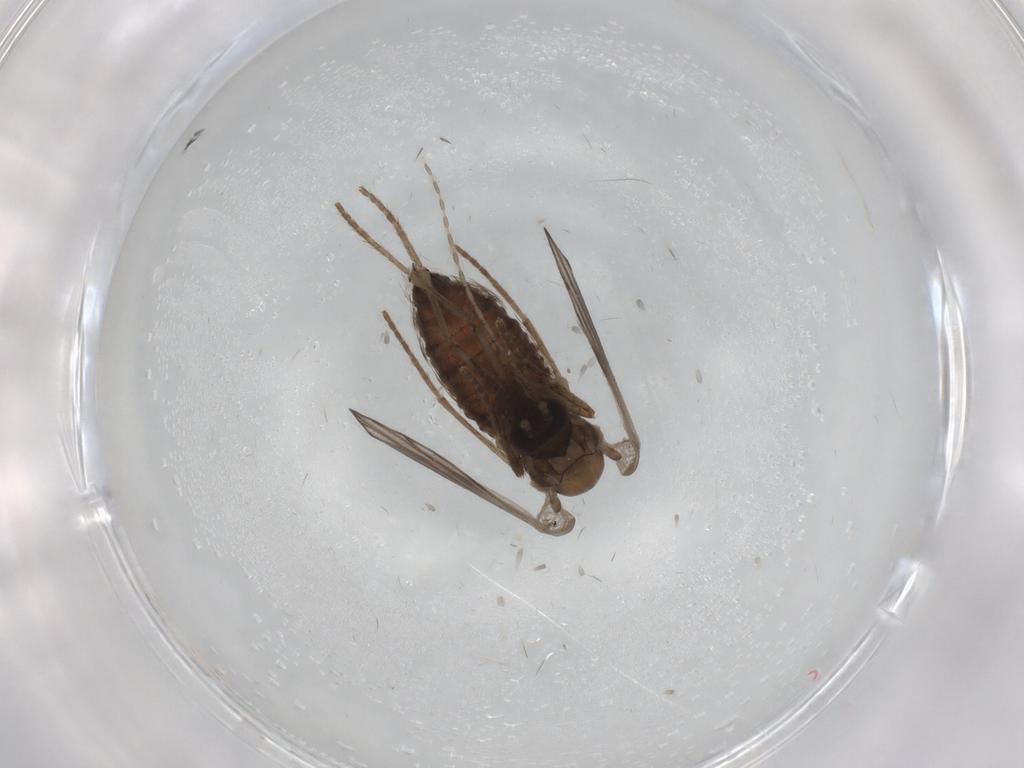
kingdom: Animalia
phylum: Arthropoda
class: Insecta
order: Diptera
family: Psychodidae
